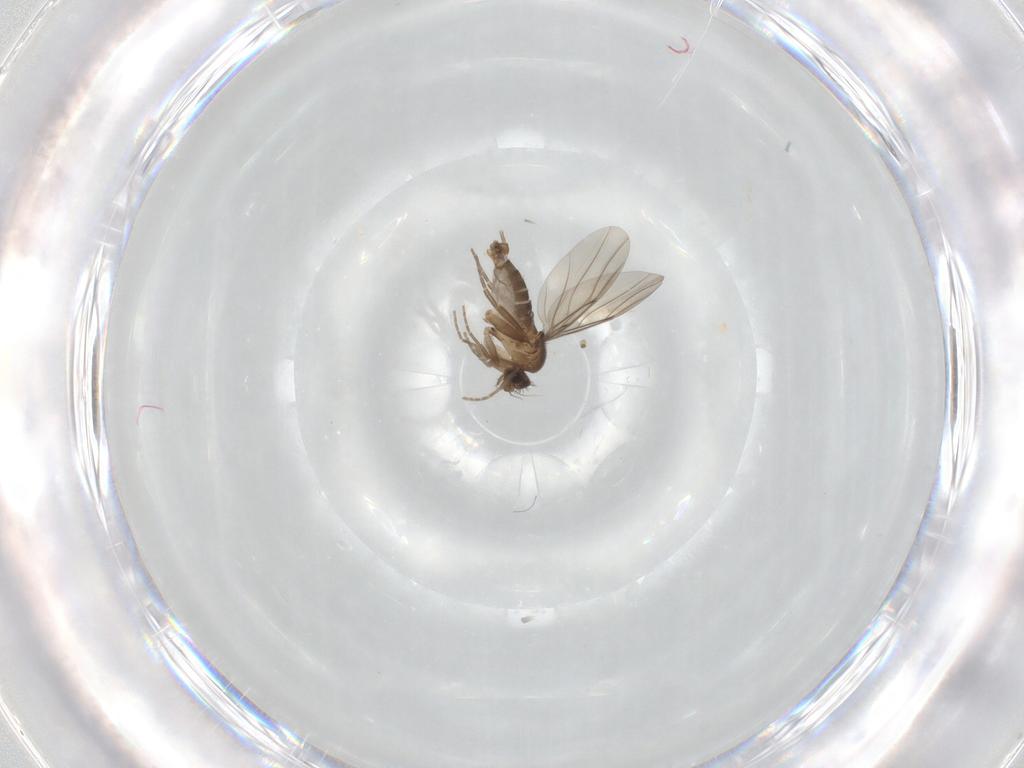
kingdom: Animalia
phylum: Arthropoda
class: Insecta
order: Diptera
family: Phoridae
